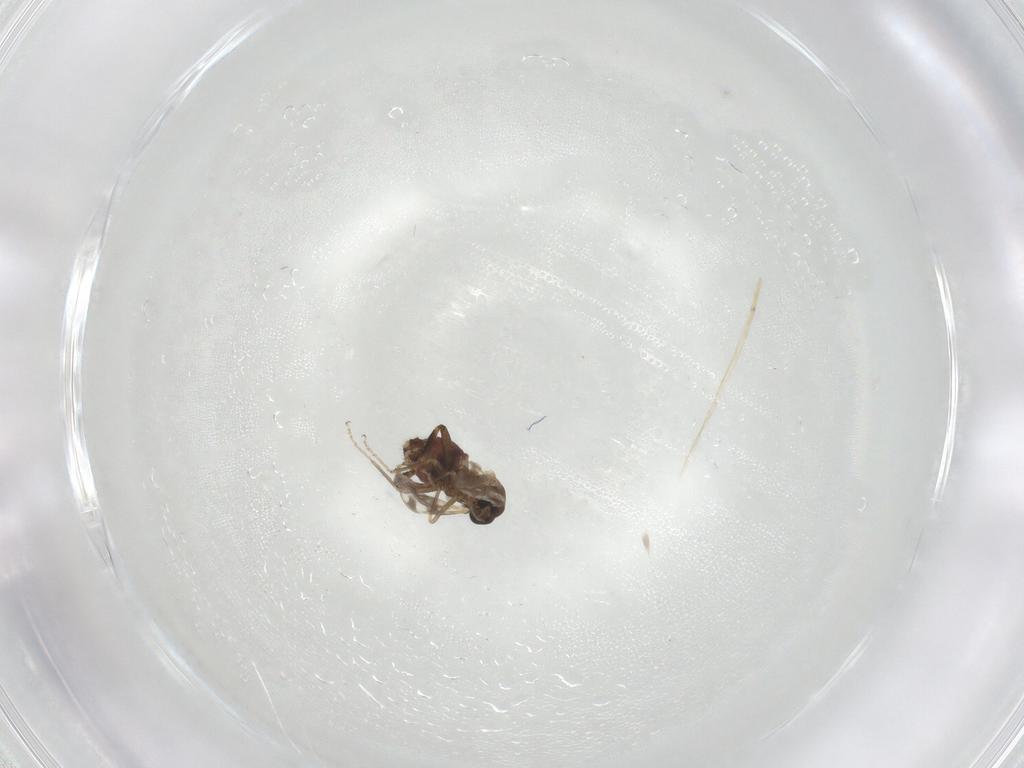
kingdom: Animalia
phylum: Arthropoda
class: Insecta
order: Diptera
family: Ceratopogonidae
